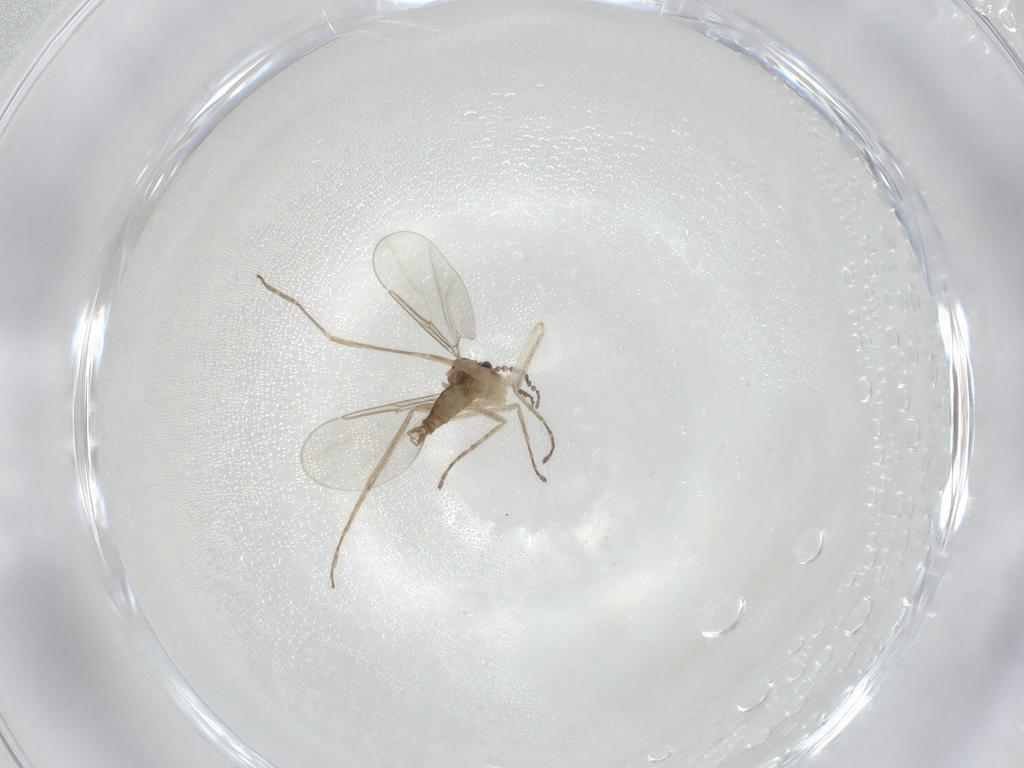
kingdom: Animalia
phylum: Arthropoda
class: Insecta
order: Diptera
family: Cecidomyiidae
